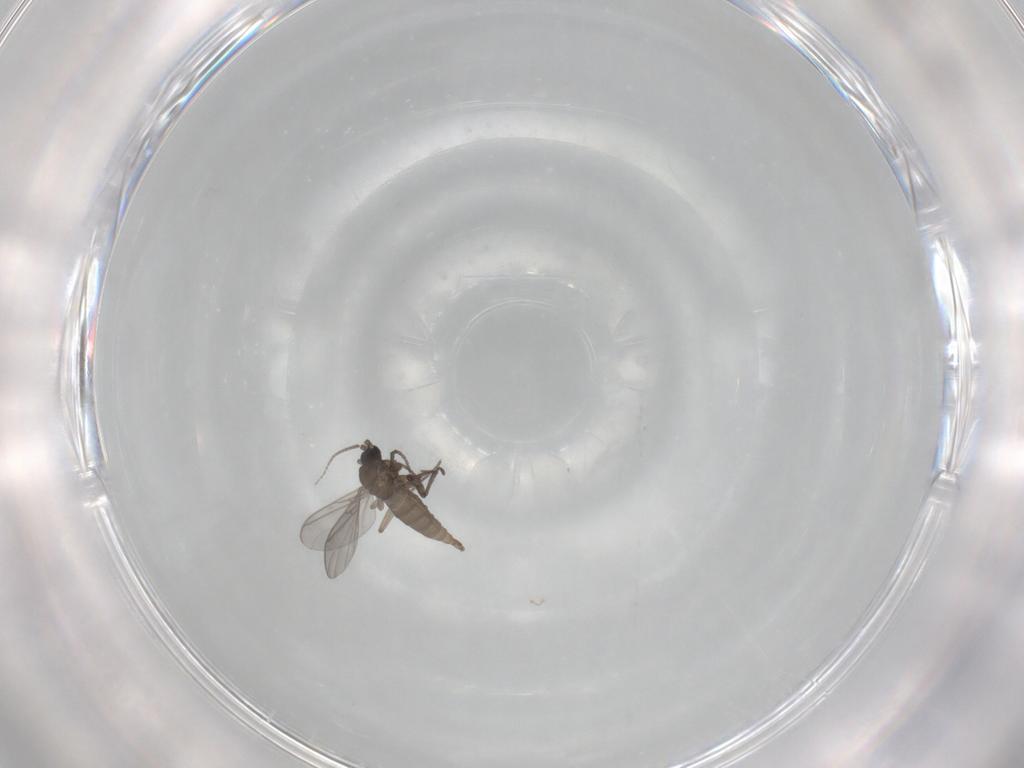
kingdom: Animalia
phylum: Arthropoda
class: Insecta
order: Diptera
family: Sciaridae
